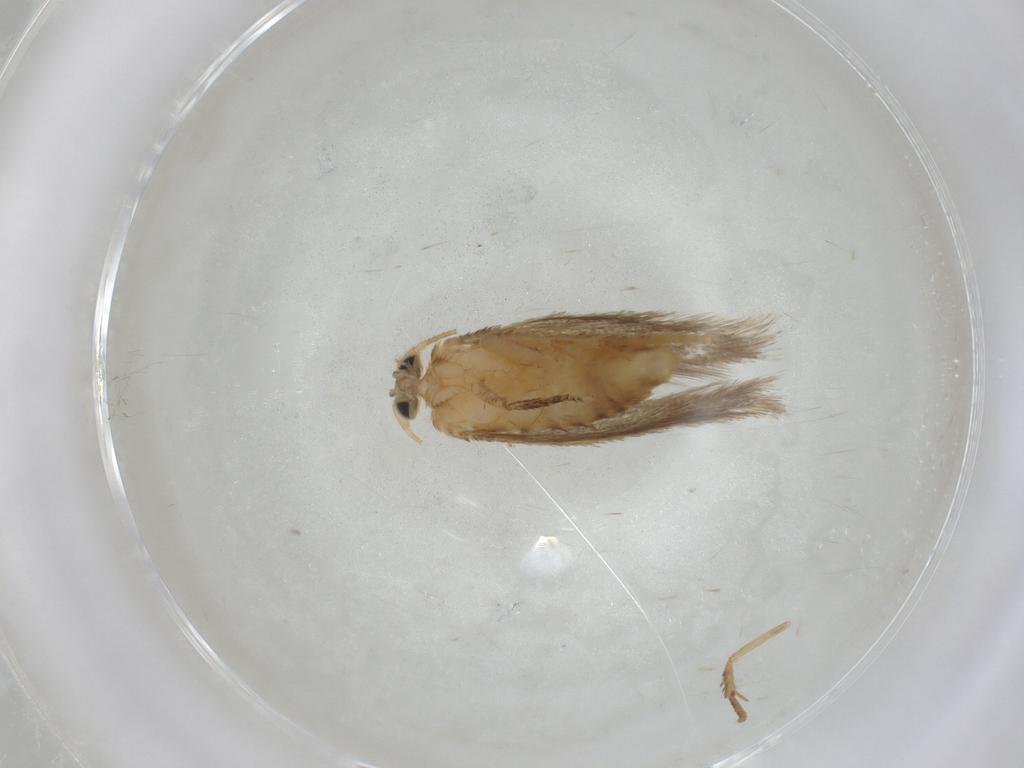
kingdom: Animalia
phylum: Arthropoda
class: Insecta
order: Lepidoptera
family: Nepticulidae
